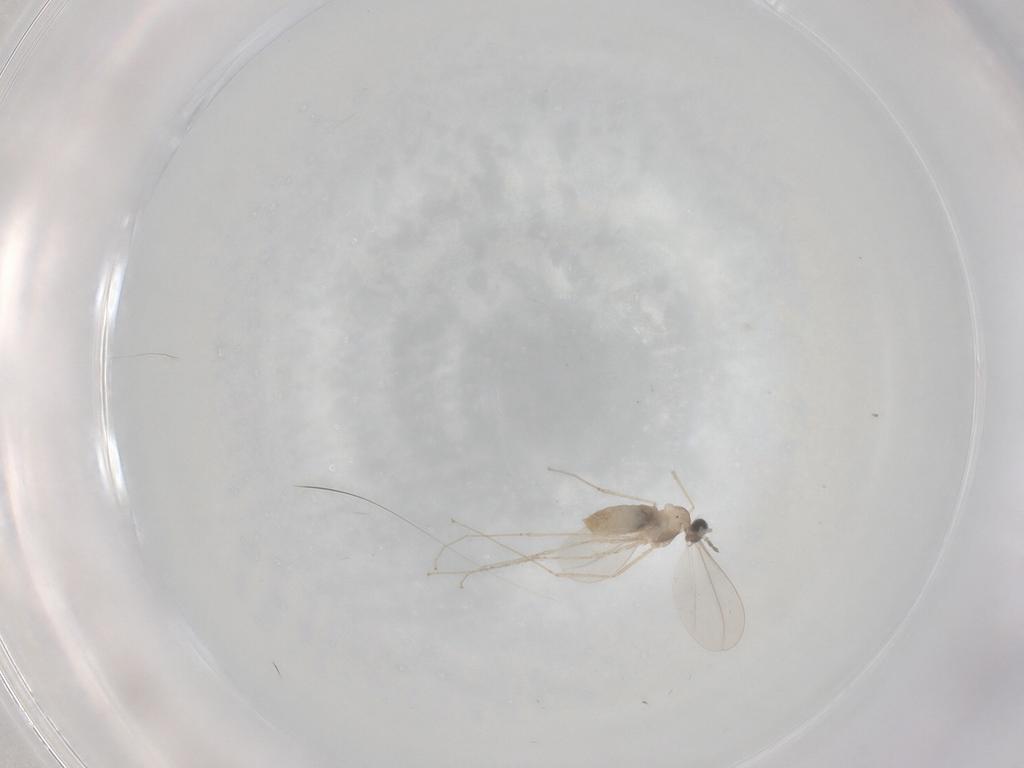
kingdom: Animalia
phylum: Arthropoda
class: Insecta
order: Diptera
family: Cecidomyiidae
